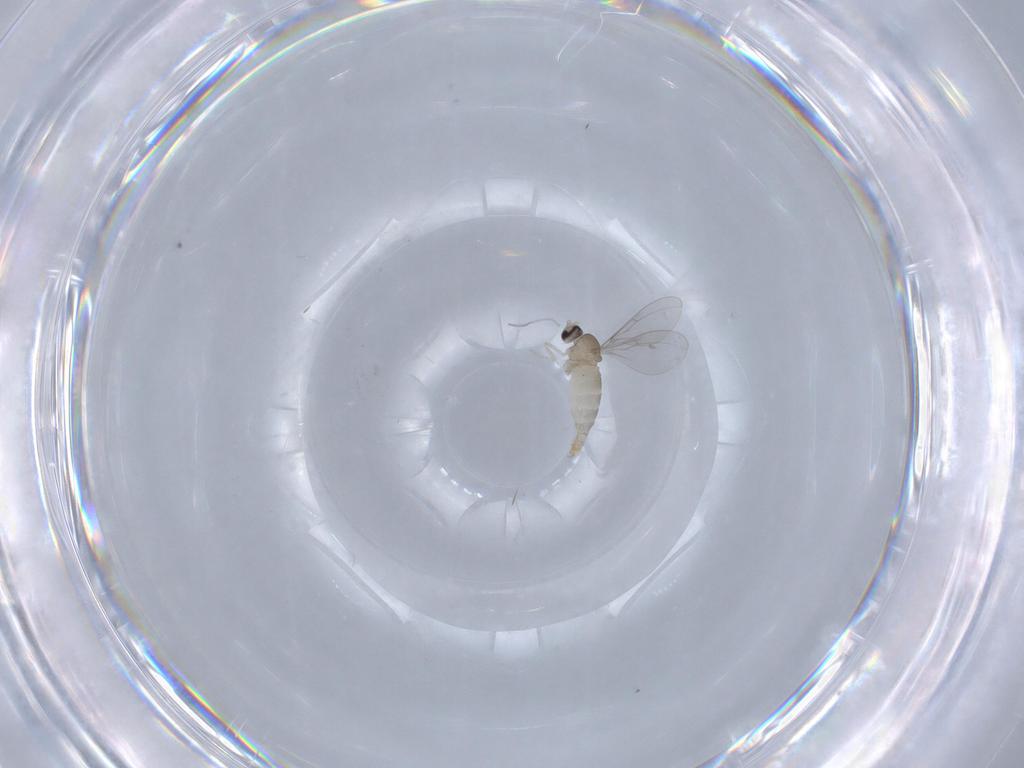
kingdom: Animalia
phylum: Arthropoda
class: Insecta
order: Diptera
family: Cecidomyiidae
